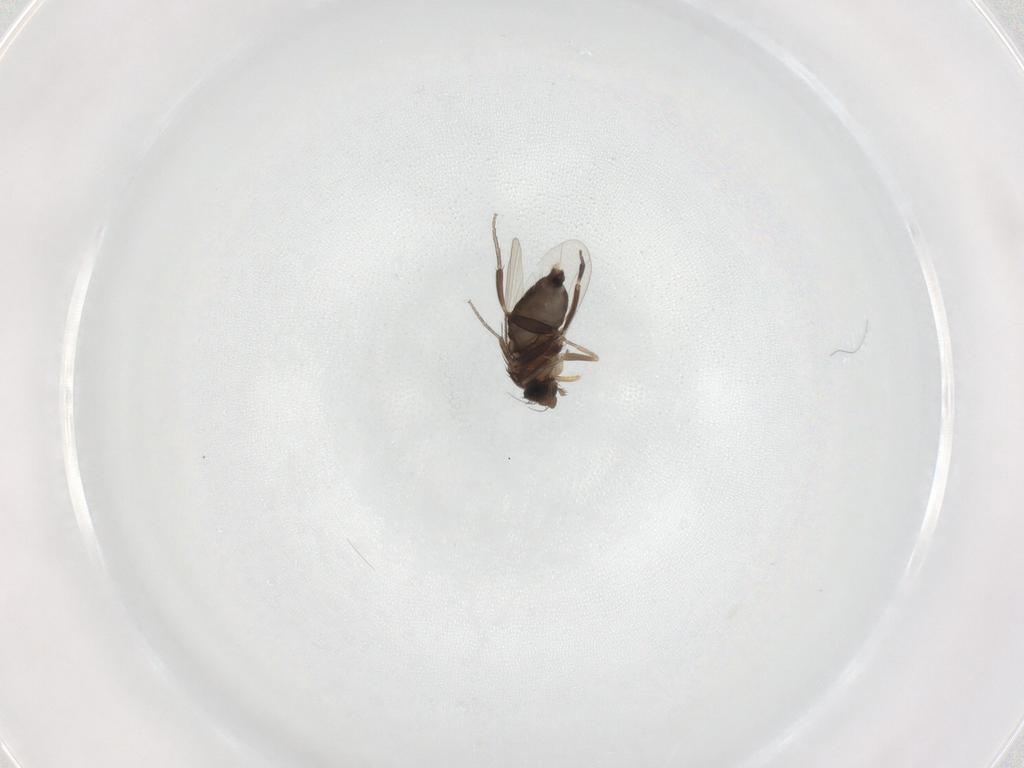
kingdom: Animalia
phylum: Arthropoda
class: Insecta
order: Diptera
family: Phoridae
